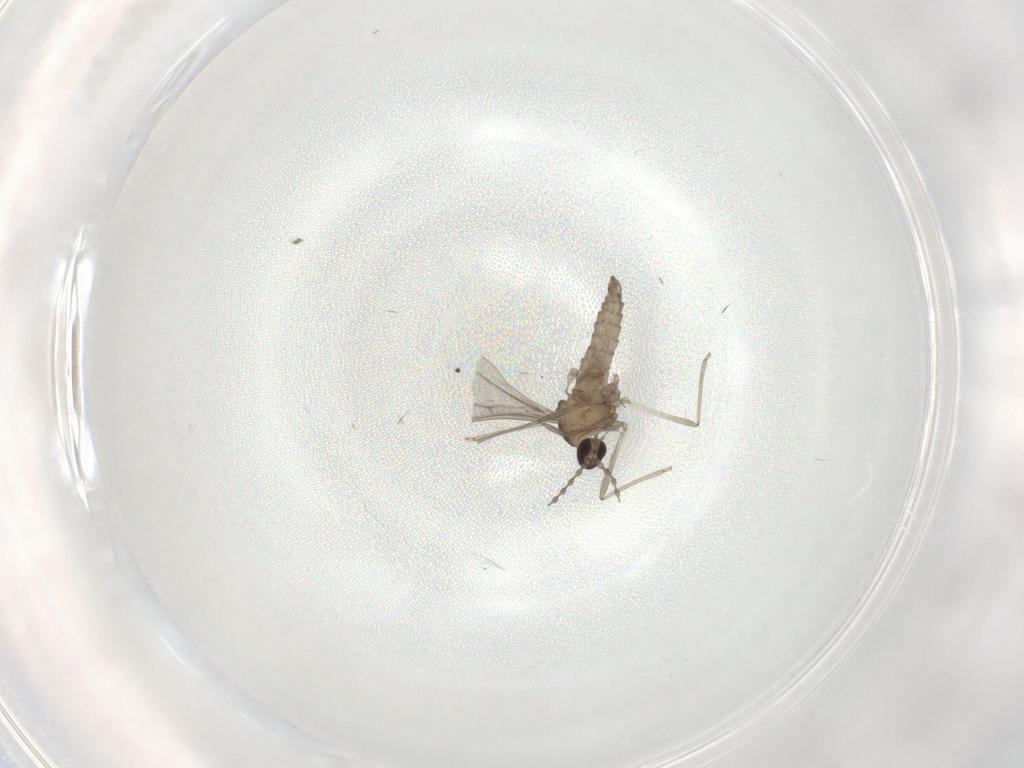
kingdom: Animalia
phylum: Arthropoda
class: Insecta
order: Diptera
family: Cecidomyiidae
